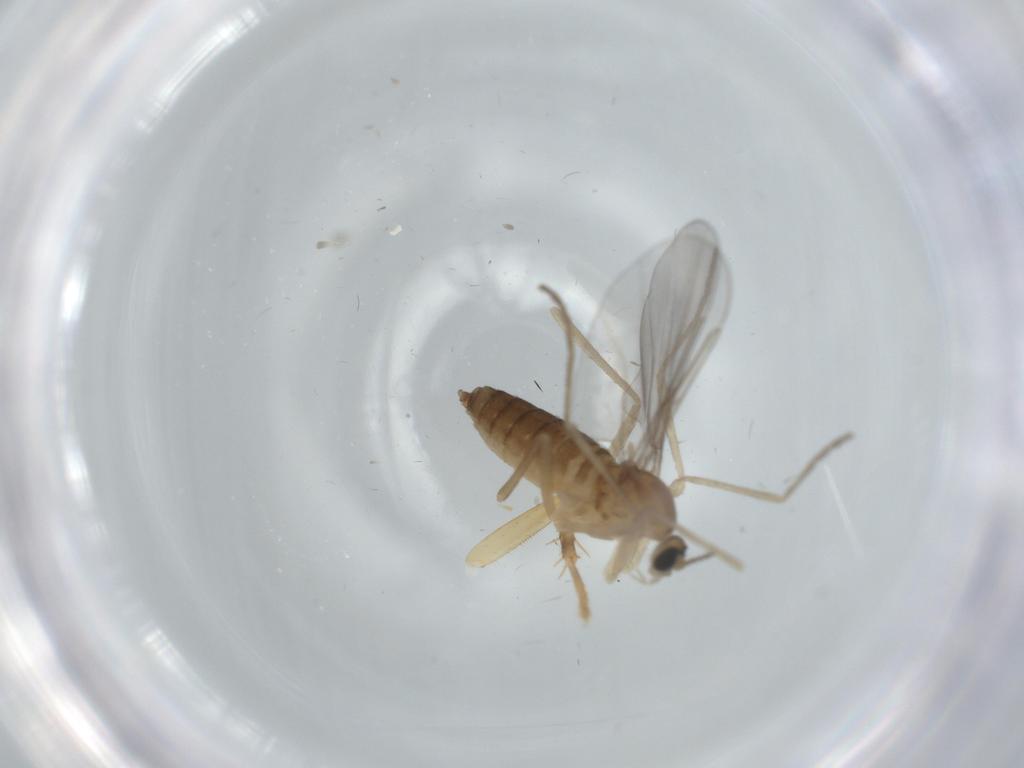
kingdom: Animalia
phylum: Arthropoda
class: Insecta
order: Diptera
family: Cecidomyiidae
